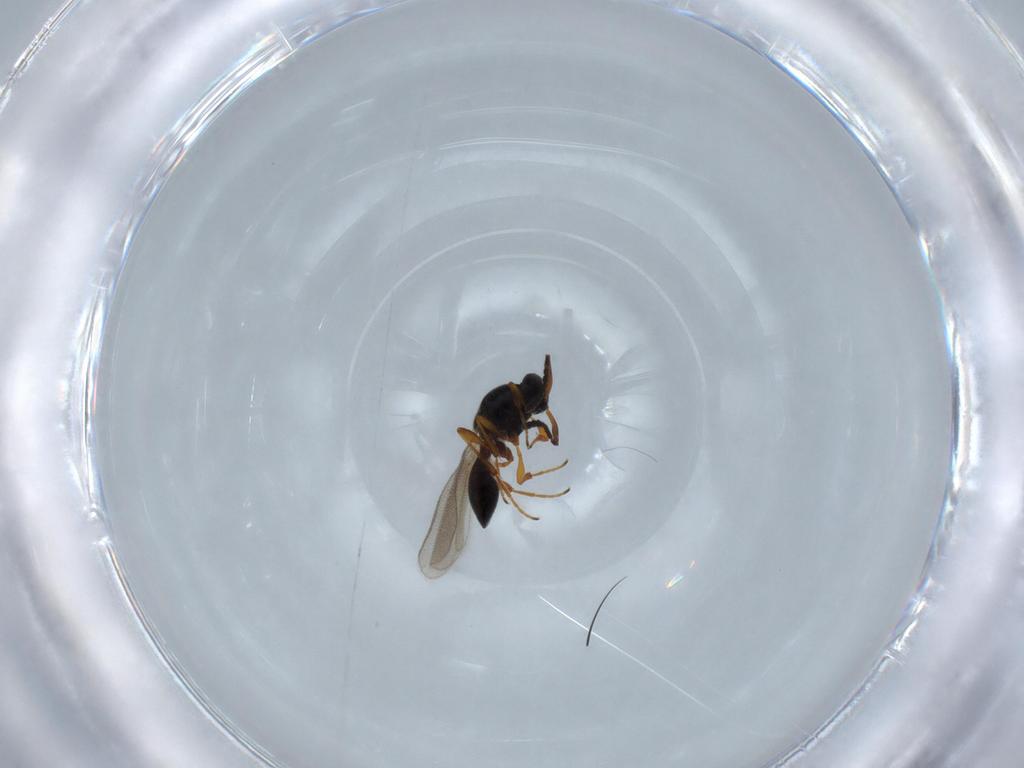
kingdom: Animalia
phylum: Arthropoda
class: Insecta
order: Hymenoptera
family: Platygastridae
